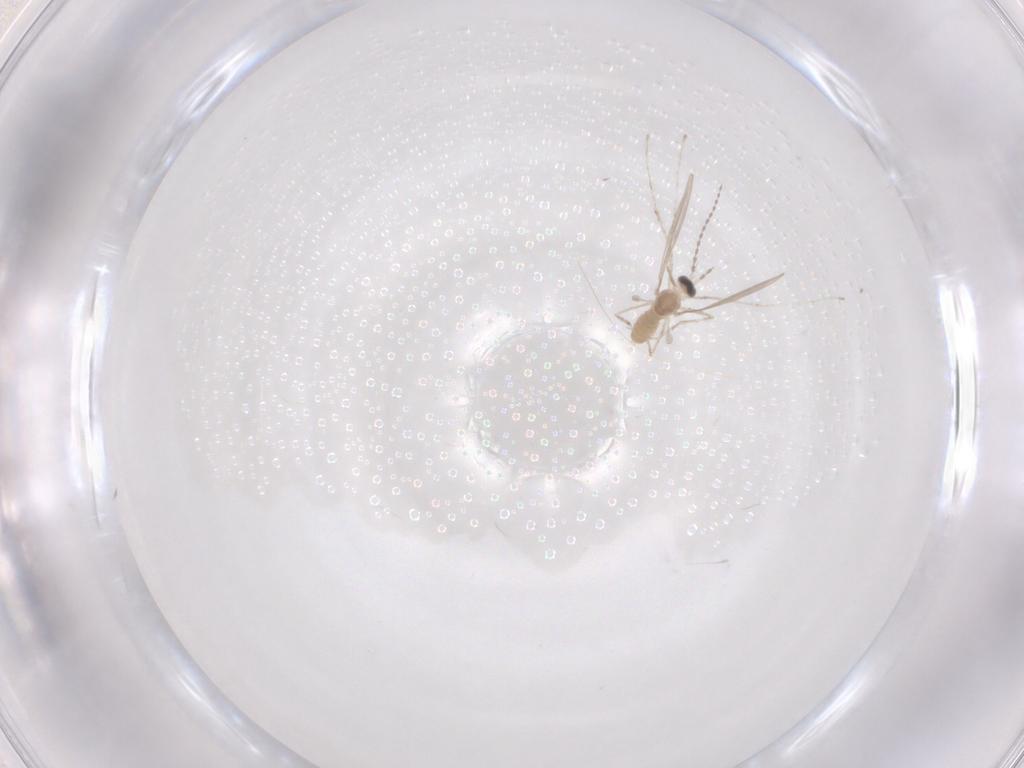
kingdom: Animalia
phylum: Arthropoda
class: Insecta
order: Diptera
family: Cecidomyiidae
